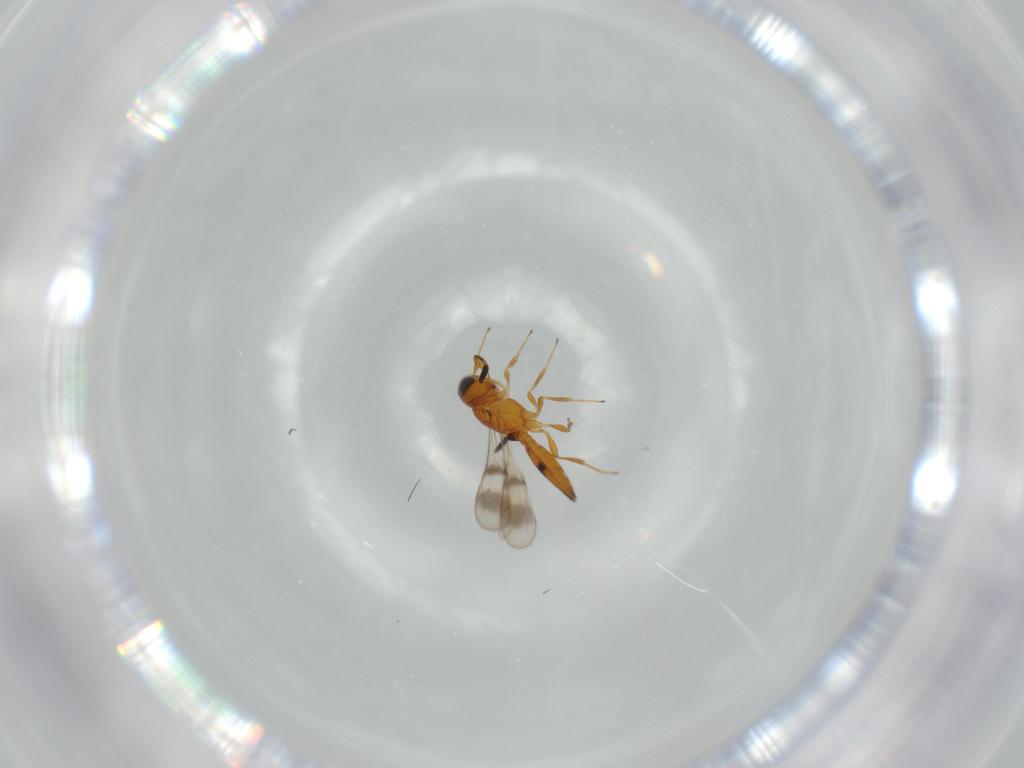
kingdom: Animalia
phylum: Arthropoda
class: Insecta
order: Hymenoptera
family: Scelionidae
